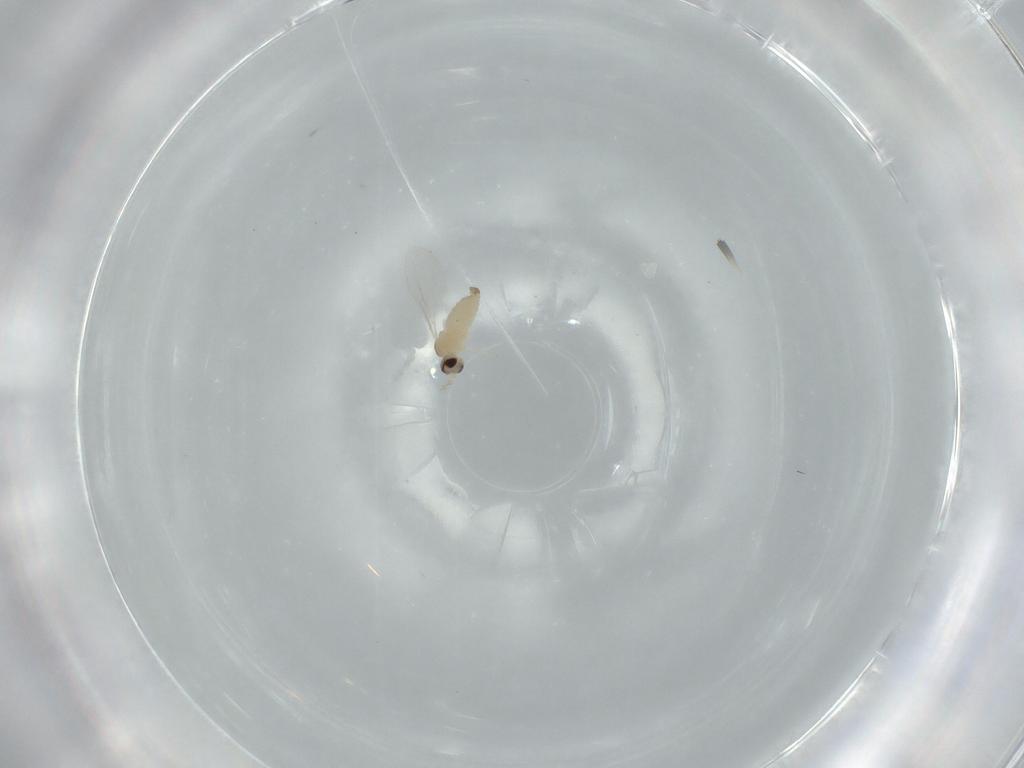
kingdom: Animalia
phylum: Arthropoda
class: Insecta
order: Diptera
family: Cecidomyiidae
